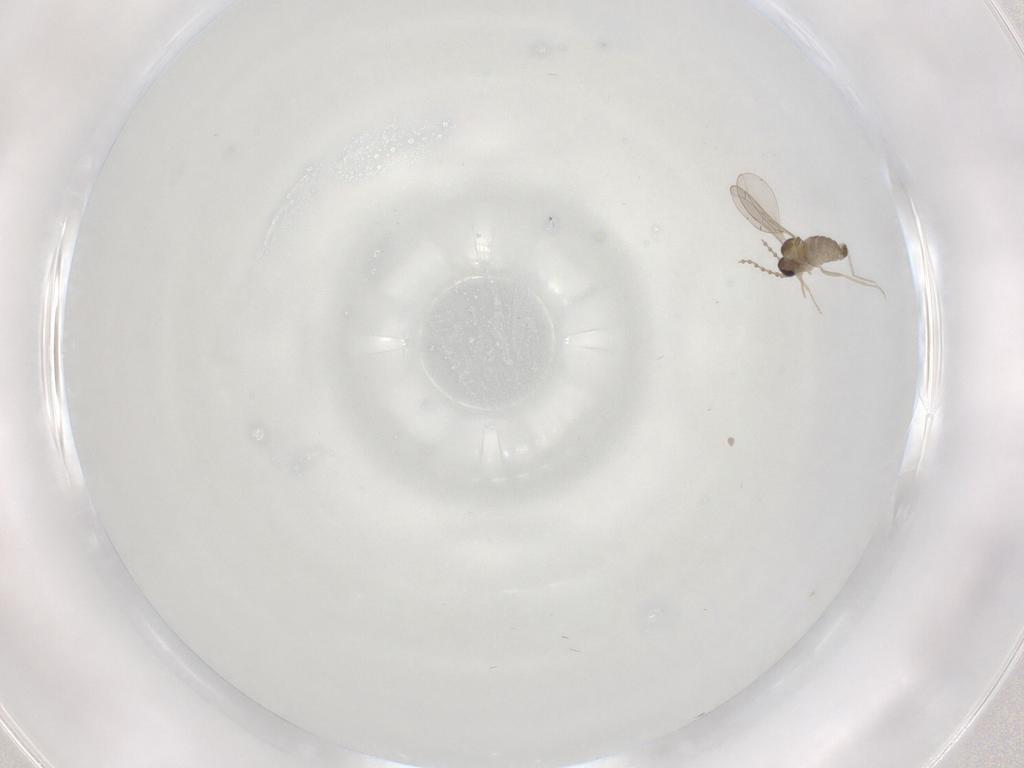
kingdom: Animalia
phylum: Arthropoda
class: Insecta
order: Diptera
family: Cecidomyiidae
